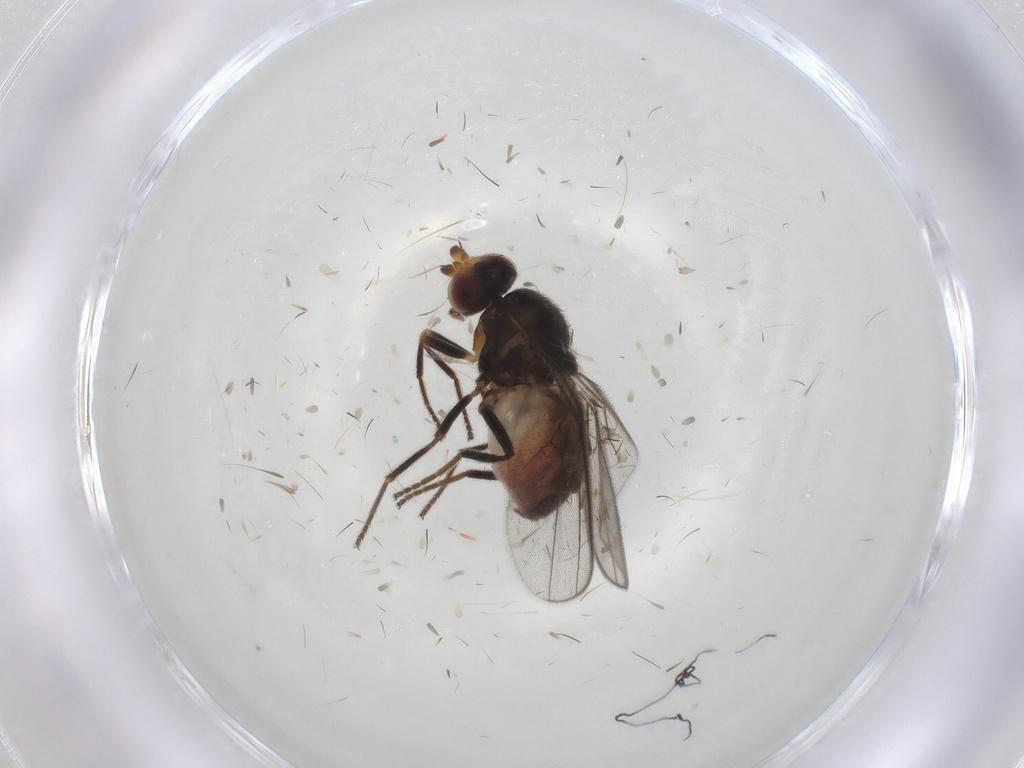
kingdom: Animalia
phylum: Arthropoda
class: Insecta
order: Diptera
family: Chloropidae
